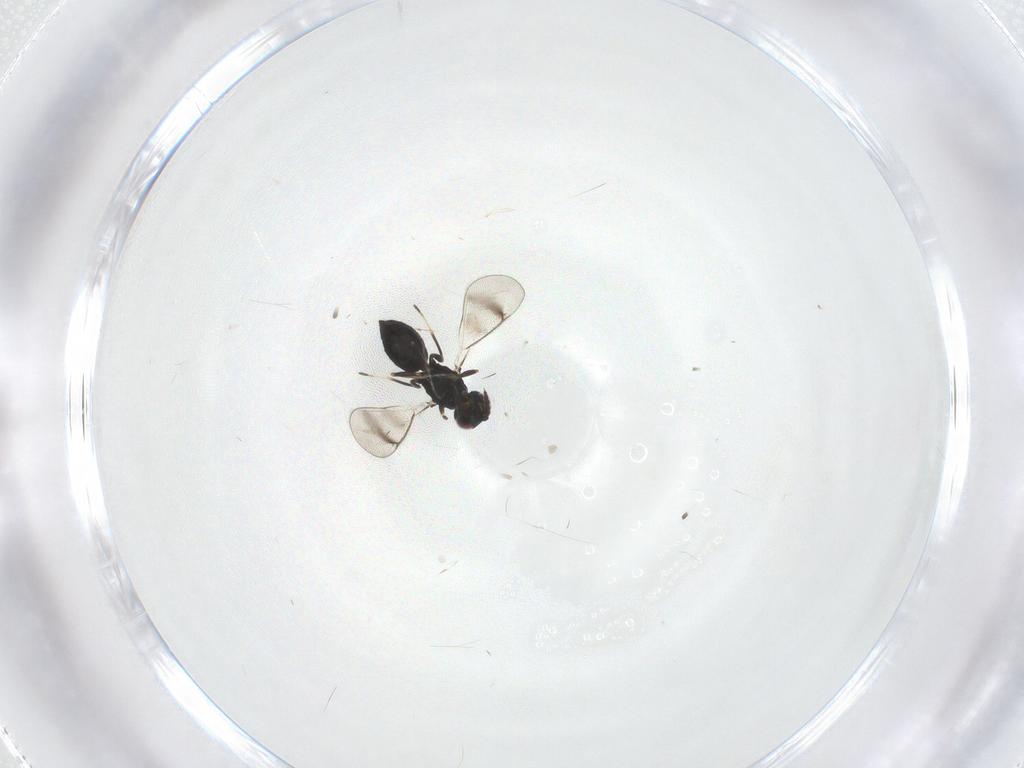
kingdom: Animalia
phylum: Arthropoda
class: Insecta
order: Hymenoptera
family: Eulophidae
